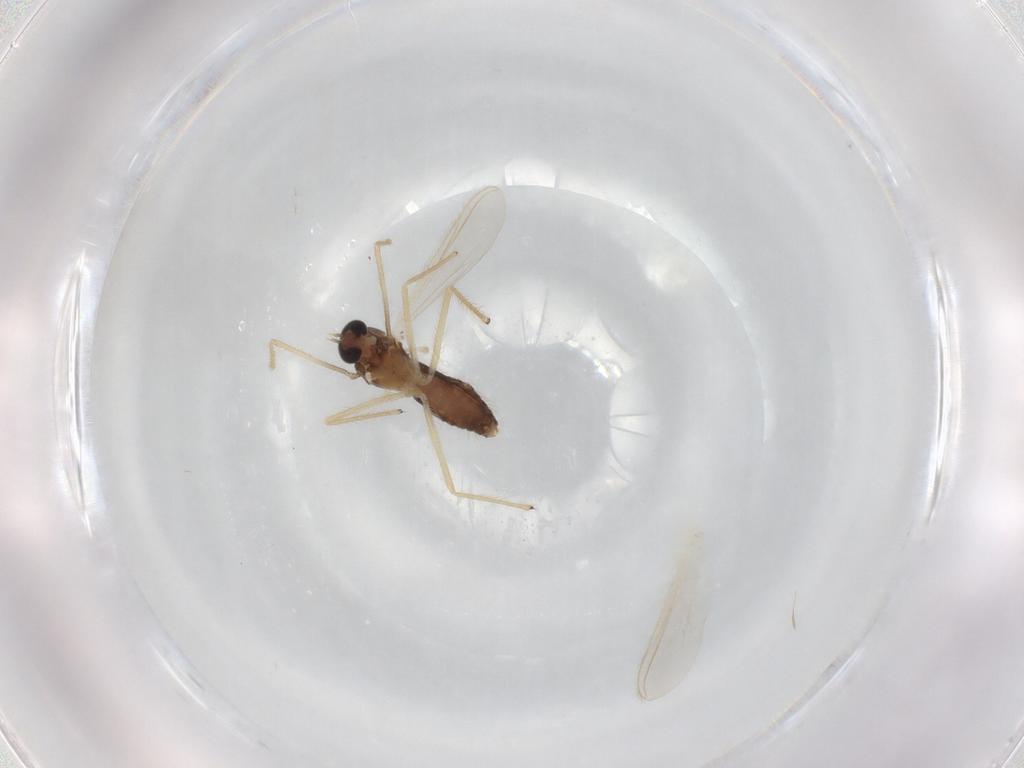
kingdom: Animalia
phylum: Arthropoda
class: Insecta
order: Diptera
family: Chironomidae
